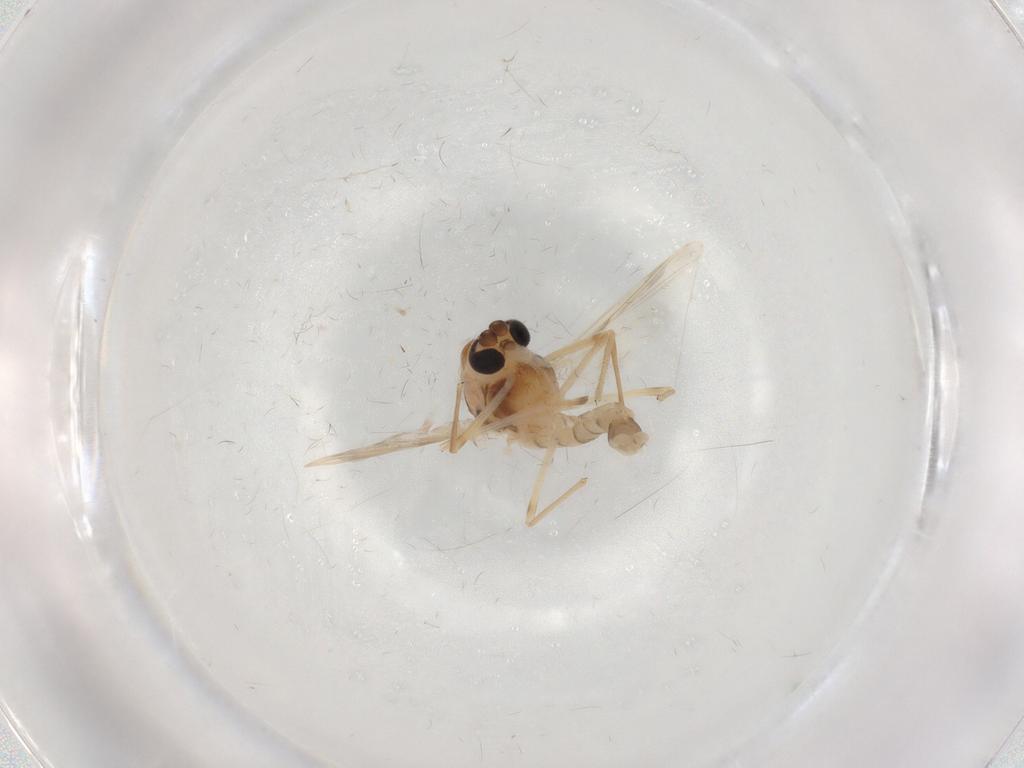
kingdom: Animalia
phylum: Arthropoda
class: Insecta
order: Diptera
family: Chironomidae
